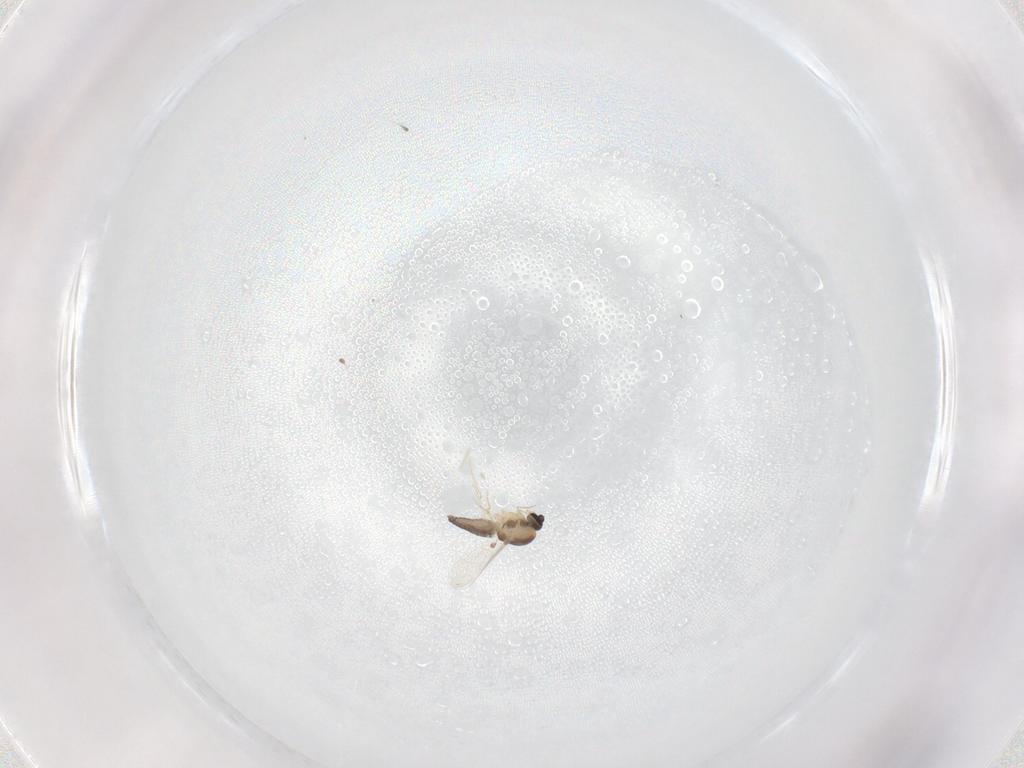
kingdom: Animalia
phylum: Arthropoda
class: Insecta
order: Diptera
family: Ceratopogonidae
